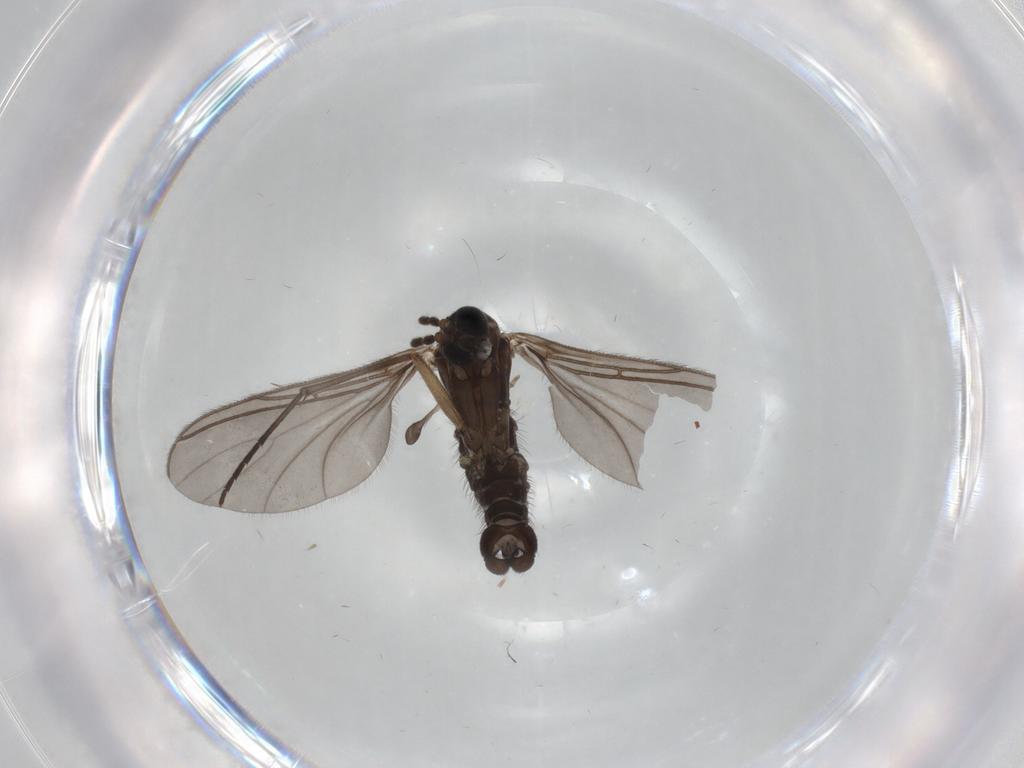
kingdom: Animalia
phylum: Arthropoda
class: Insecta
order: Diptera
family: Sciaridae
